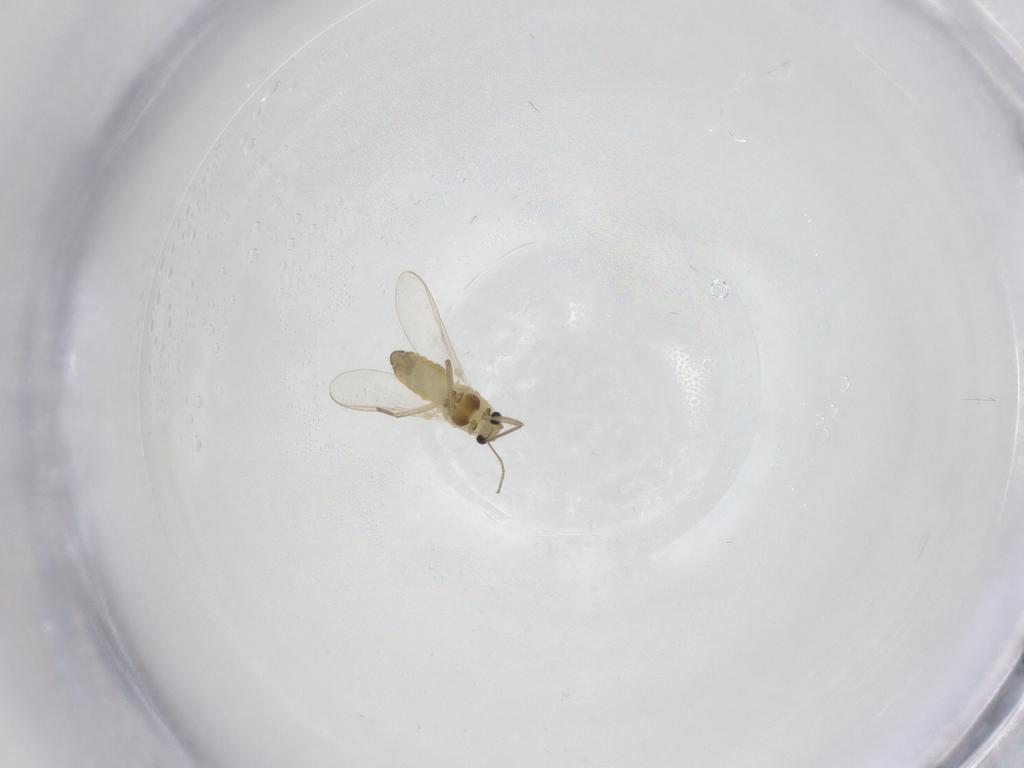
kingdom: Animalia
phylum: Arthropoda
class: Insecta
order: Diptera
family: Chironomidae
